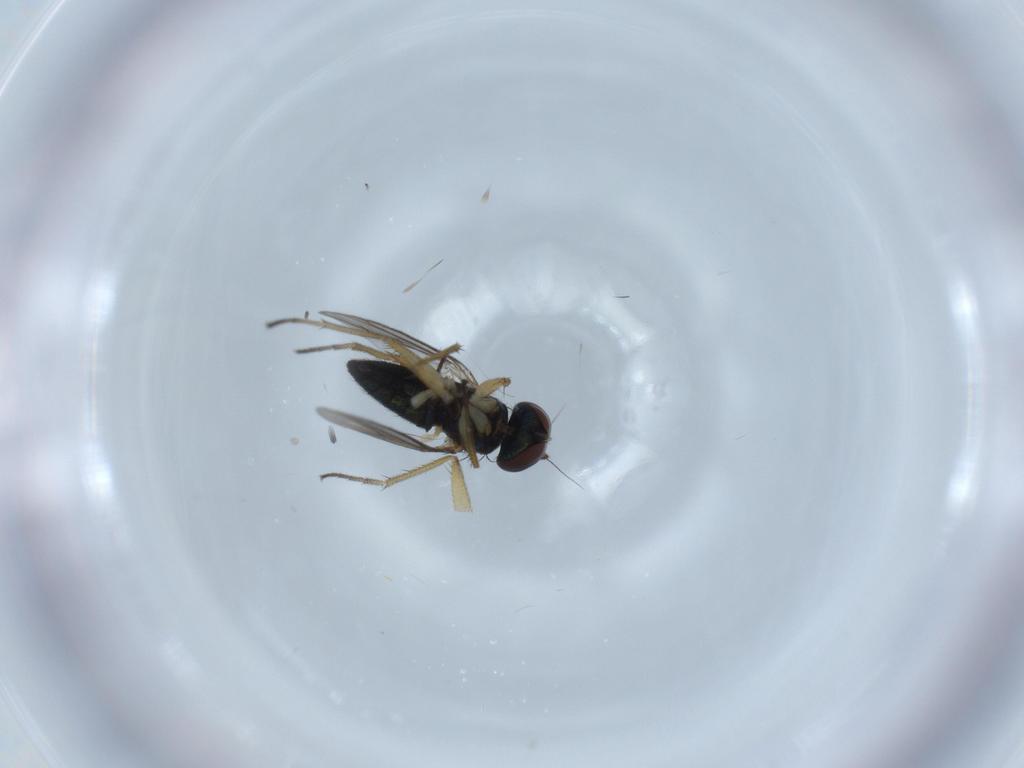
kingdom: Animalia
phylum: Arthropoda
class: Insecta
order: Diptera
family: Dolichopodidae
